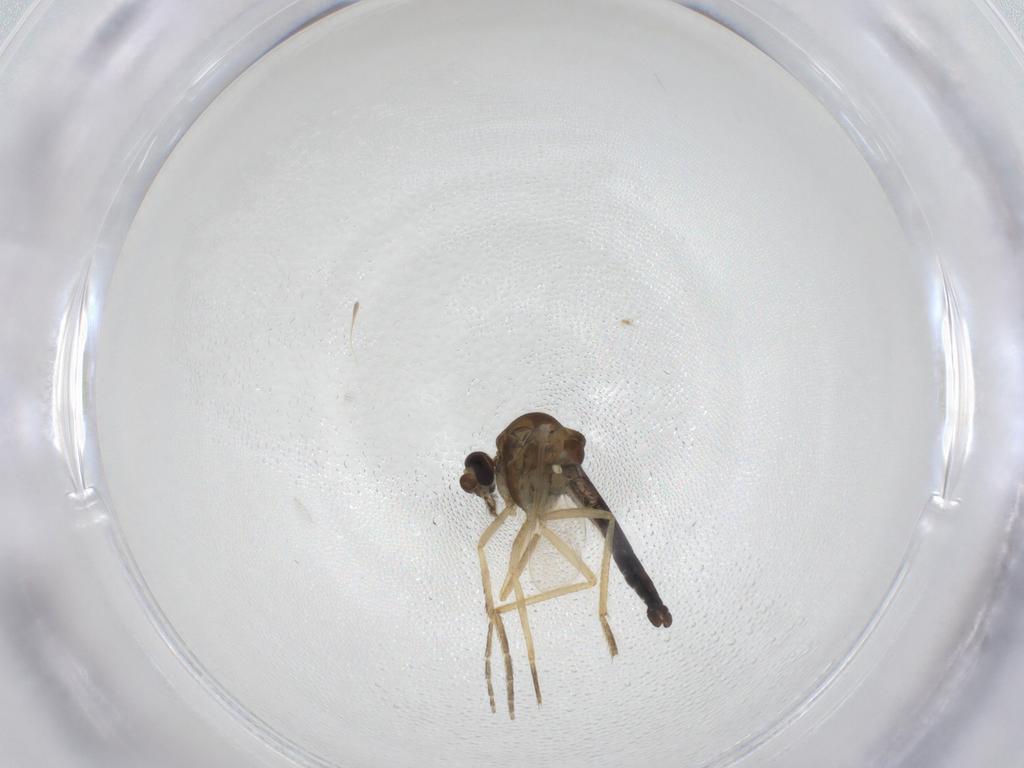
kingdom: Animalia
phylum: Arthropoda
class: Insecta
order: Diptera
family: Ceratopogonidae
